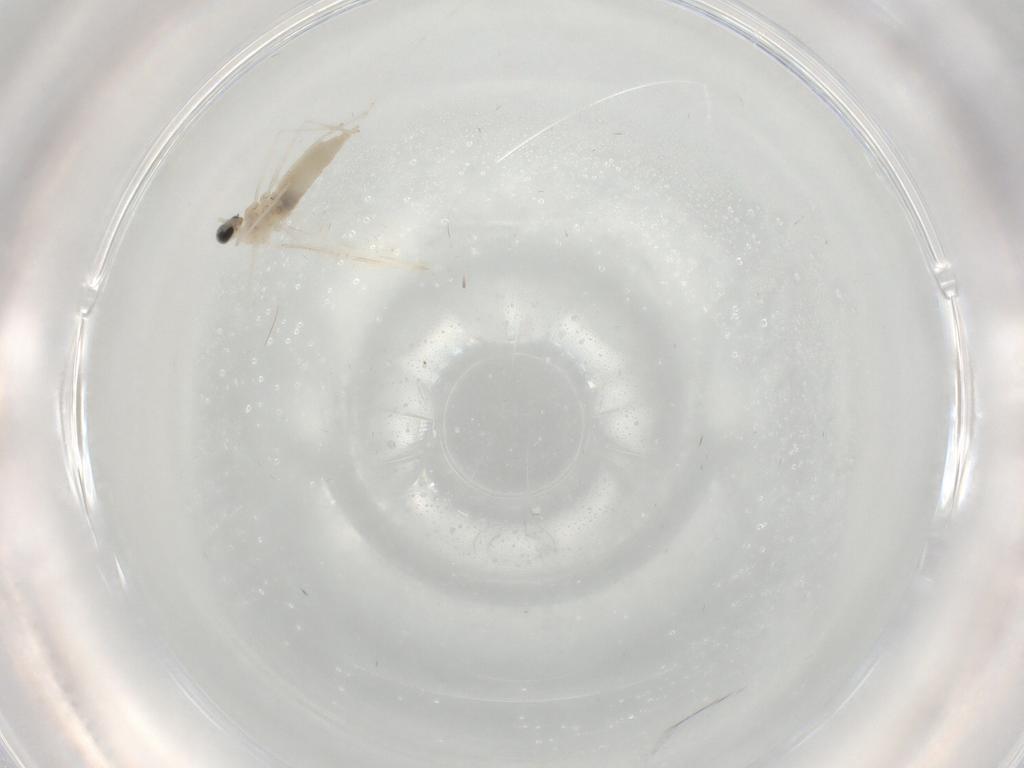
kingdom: Animalia
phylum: Arthropoda
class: Insecta
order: Diptera
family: Cecidomyiidae
